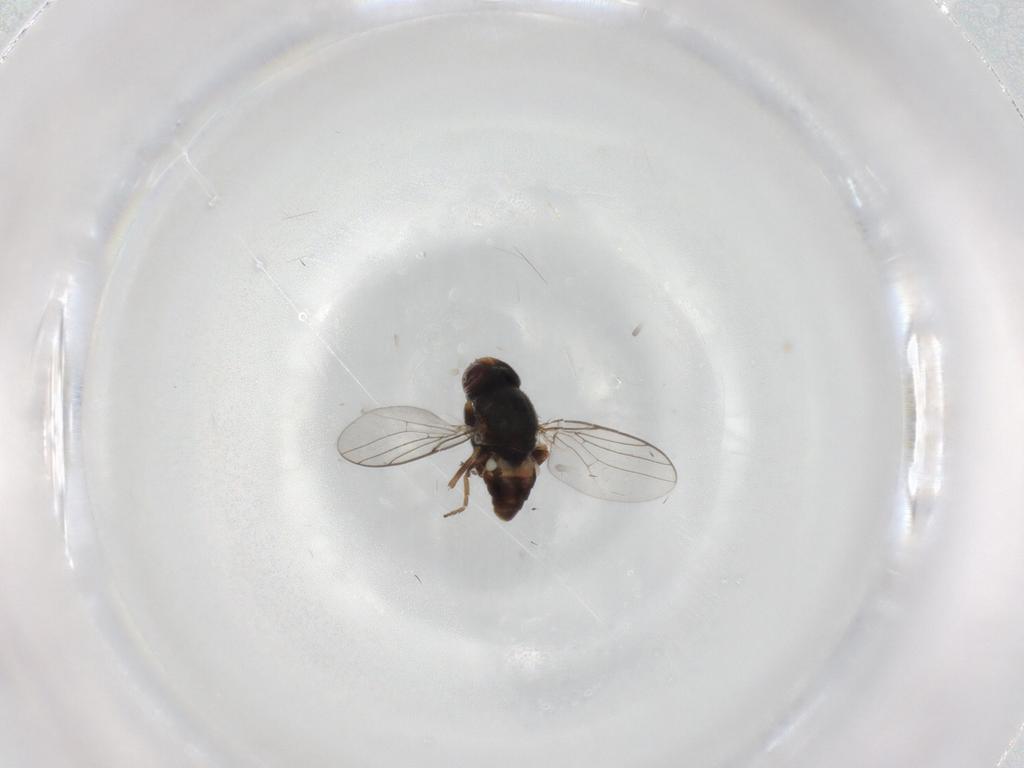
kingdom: Animalia
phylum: Arthropoda
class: Insecta
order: Diptera
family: Chloropidae
